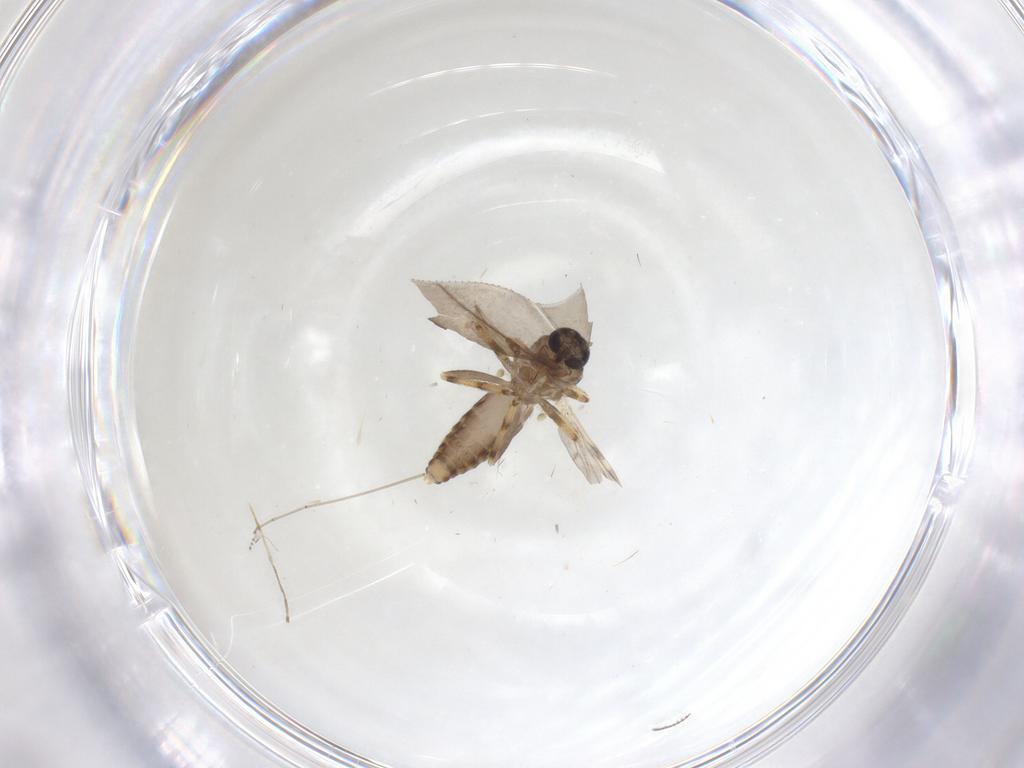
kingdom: Animalia
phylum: Arthropoda
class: Insecta
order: Diptera
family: Ceratopogonidae
